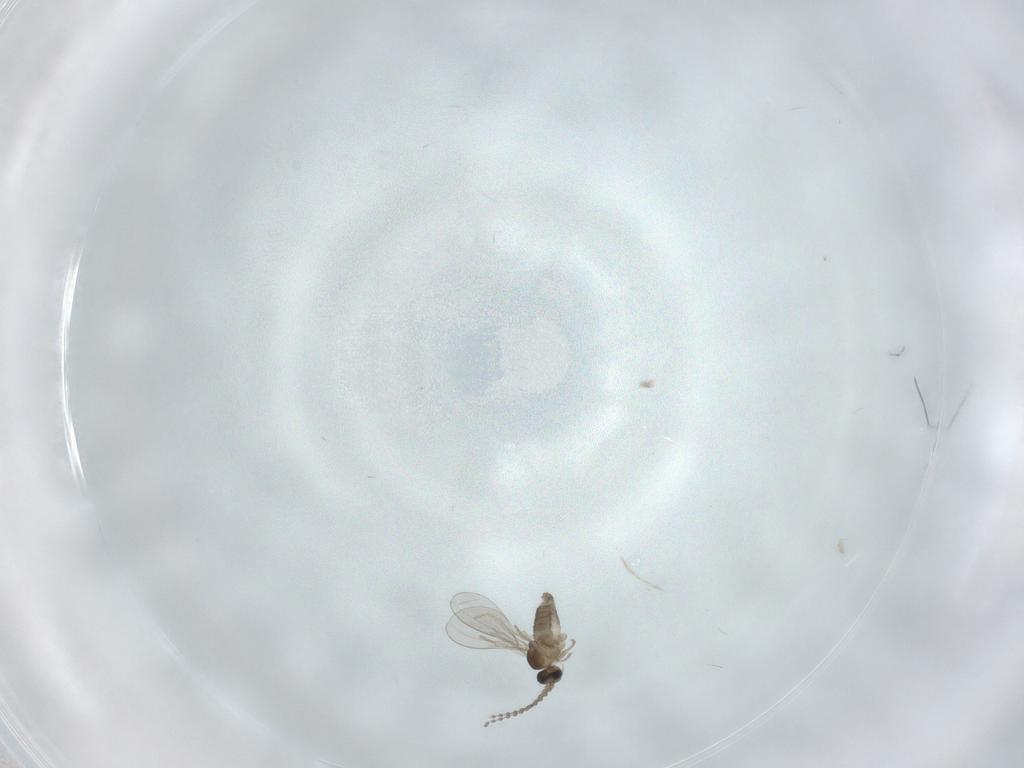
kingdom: Animalia
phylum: Arthropoda
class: Insecta
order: Diptera
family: Cecidomyiidae
